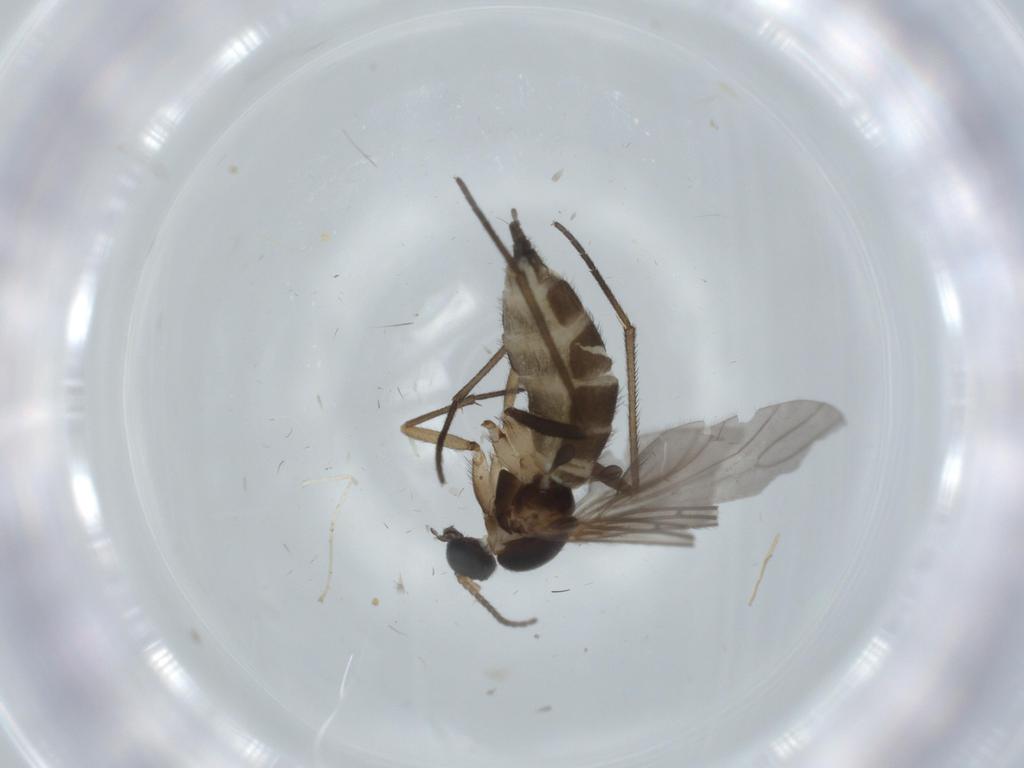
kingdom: Animalia
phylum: Arthropoda
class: Insecta
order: Diptera
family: Sciaridae
